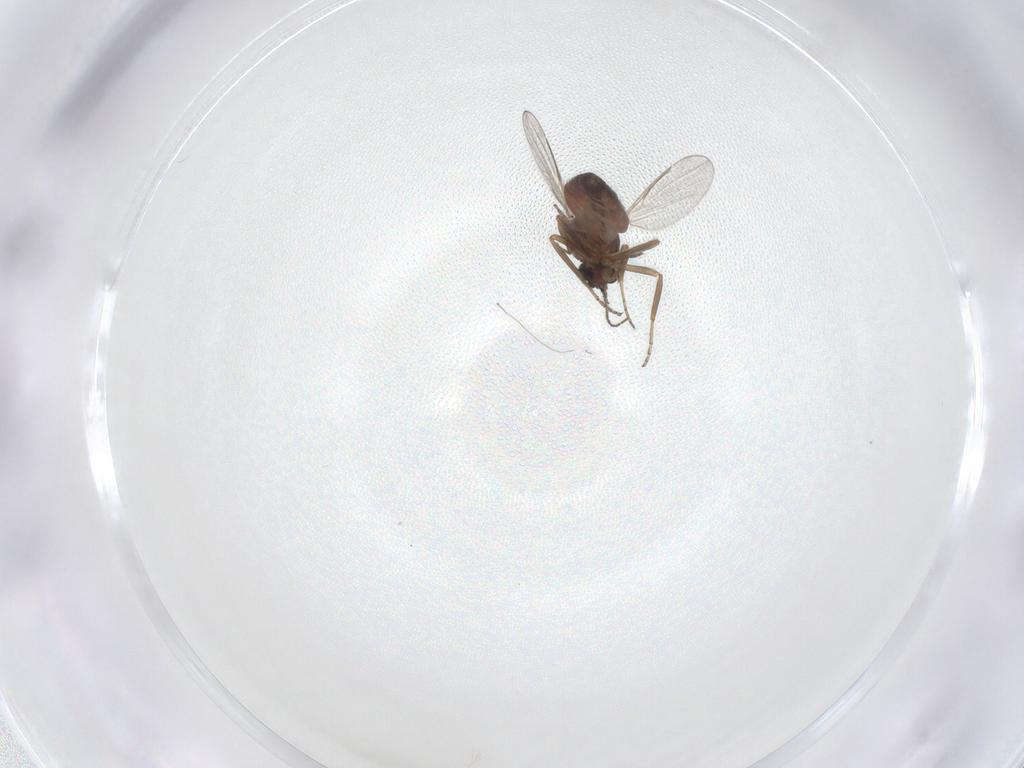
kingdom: Animalia
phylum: Arthropoda
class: Insecta
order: Diptera
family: Ceratopogonidae
